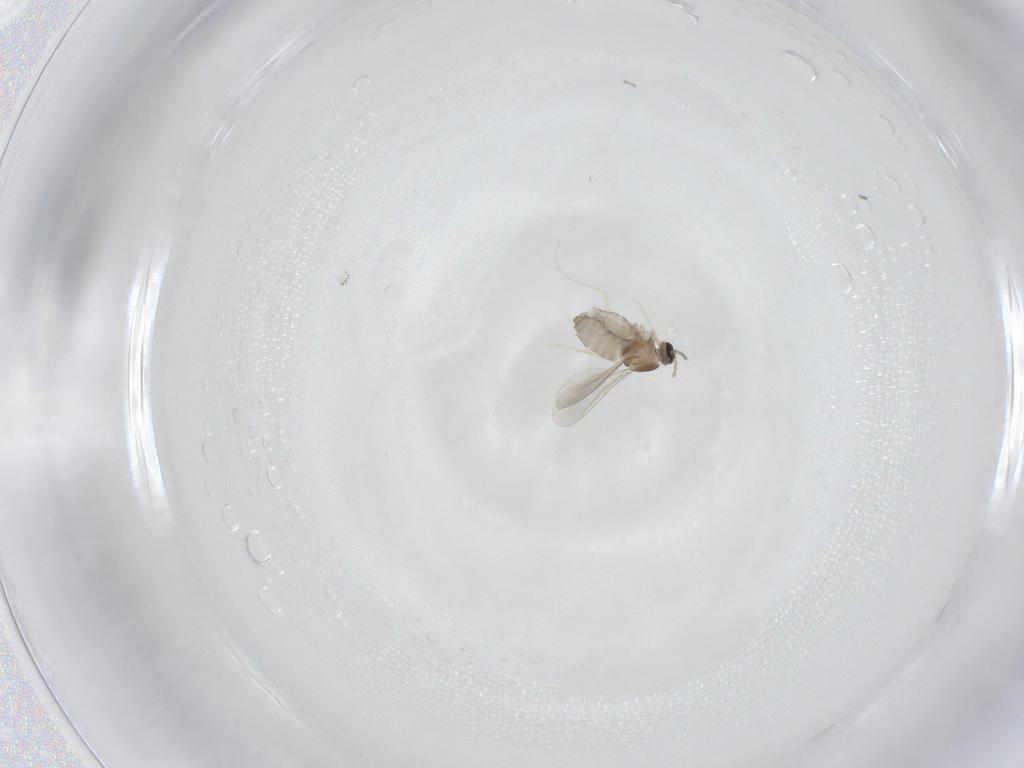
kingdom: Animalia
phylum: Arthropoda
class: Insecta
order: Diptera
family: Cecidomyiidae
